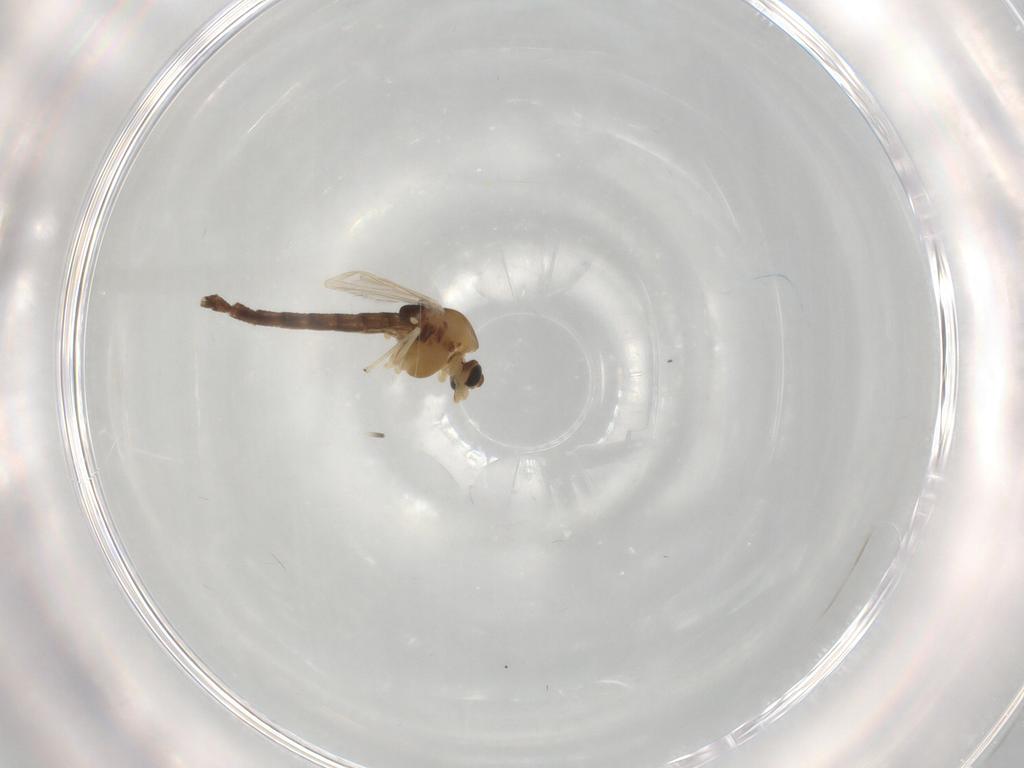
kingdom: Animalia
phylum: Arthropoda
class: Insecta
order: Diptera
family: Chironomidae
